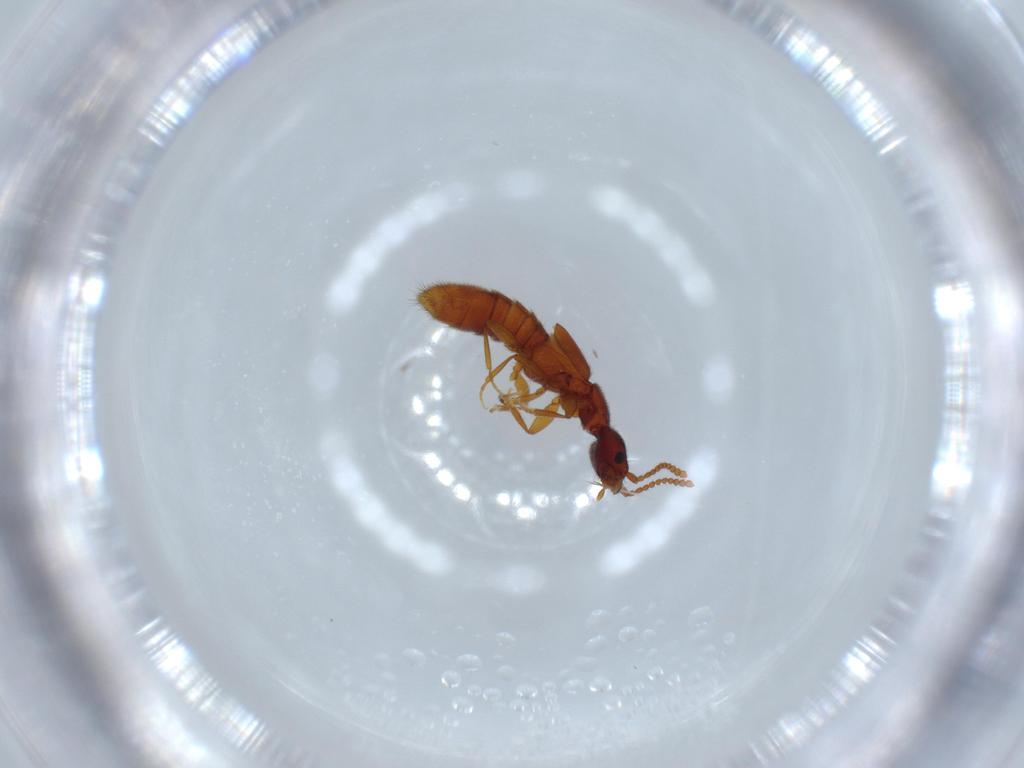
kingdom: Animalia
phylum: Arthropoda
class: Insecta
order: Coleoptera
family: Staphylinidae
